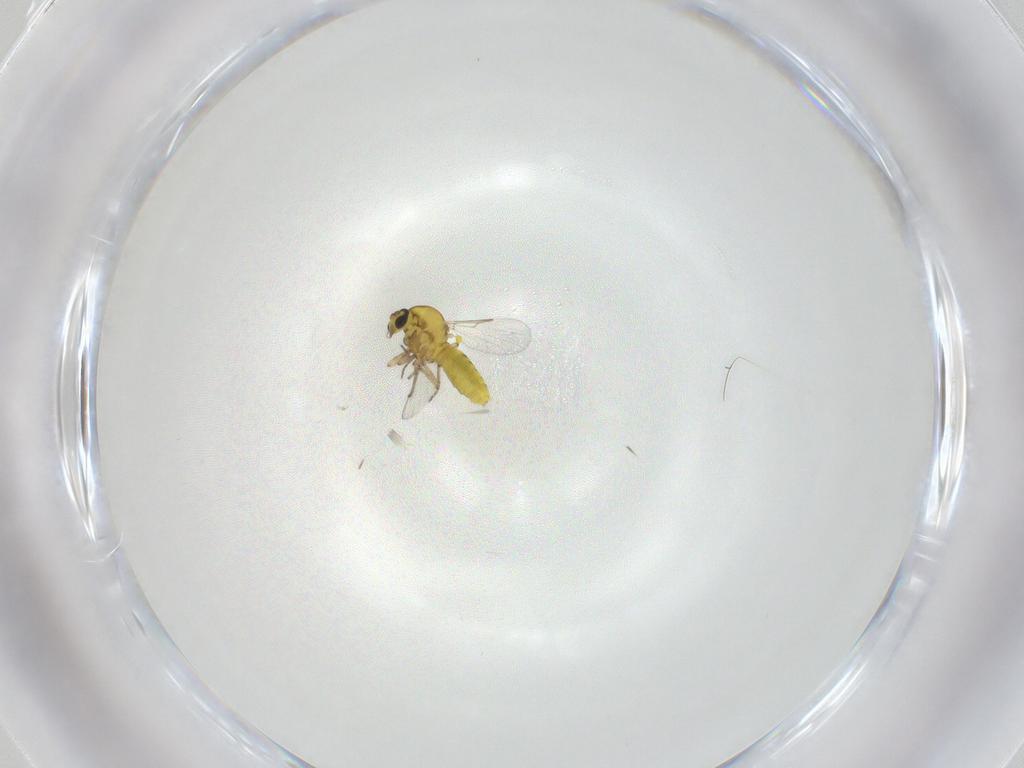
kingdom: Animalia
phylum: Arthropoda
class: Insecta
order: Diptera
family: Ceratopogonidae
